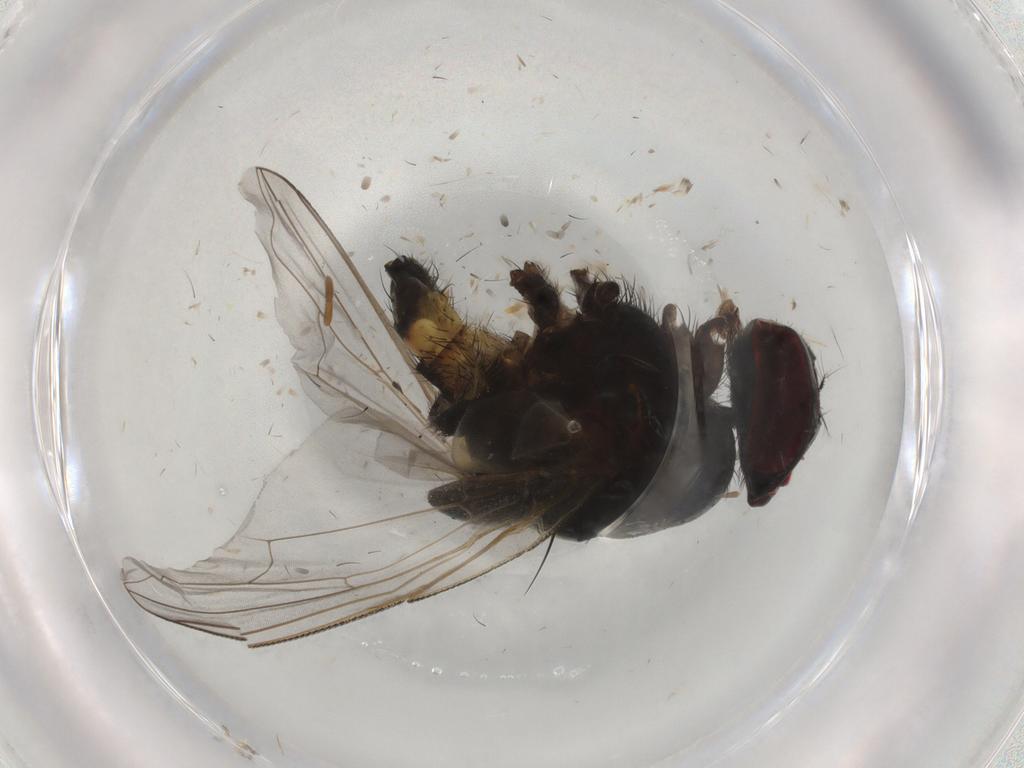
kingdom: Animalia
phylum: Arthropoda
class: Insecta
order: Diptera
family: Muscidae
